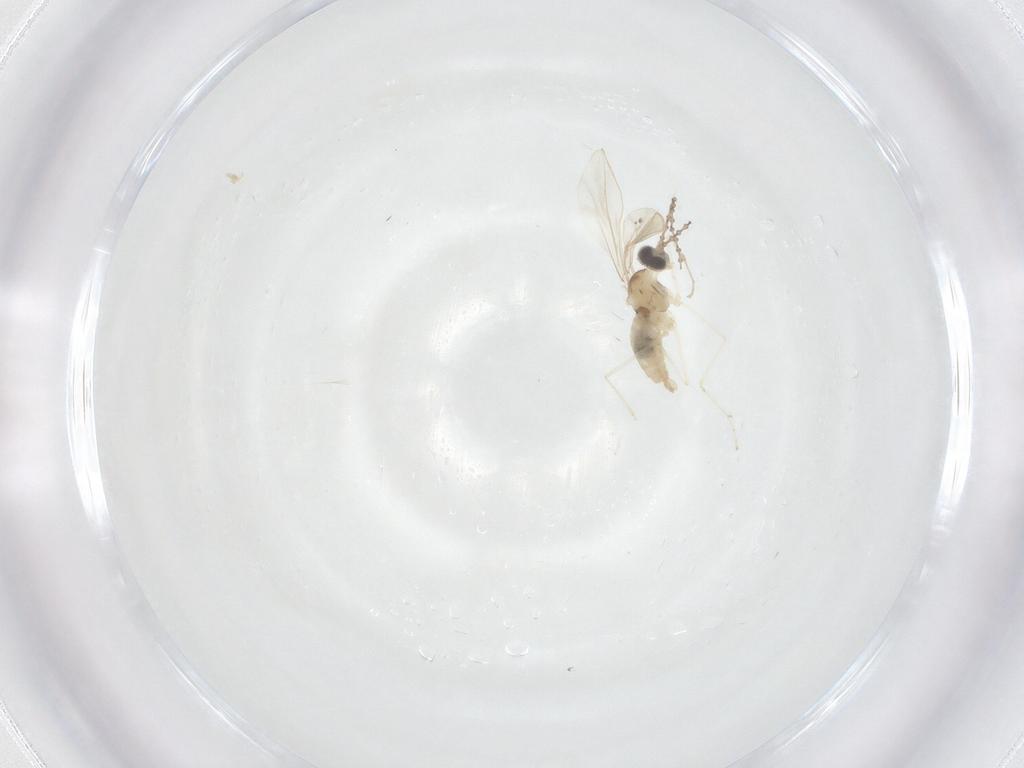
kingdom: Animalia
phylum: Arthropoda
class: Insecta
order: Diptera
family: Cecidomyiidae
